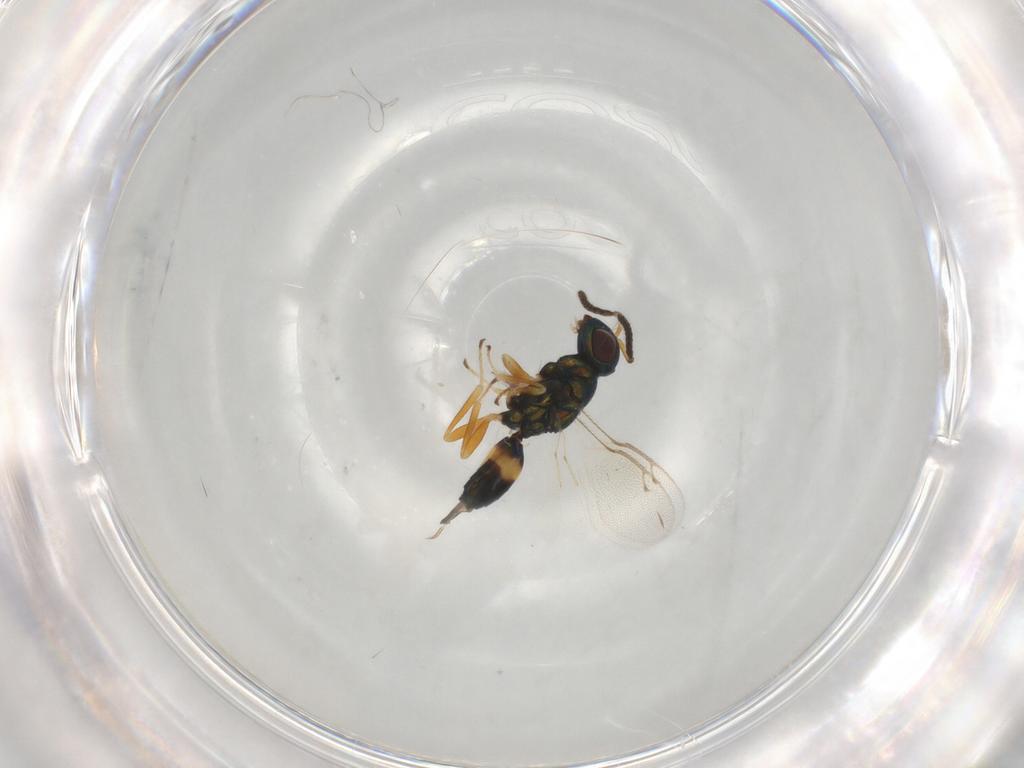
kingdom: Animalia
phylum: Arthropoda
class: Insecta
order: Hymenoptera
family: Pteromalidae
